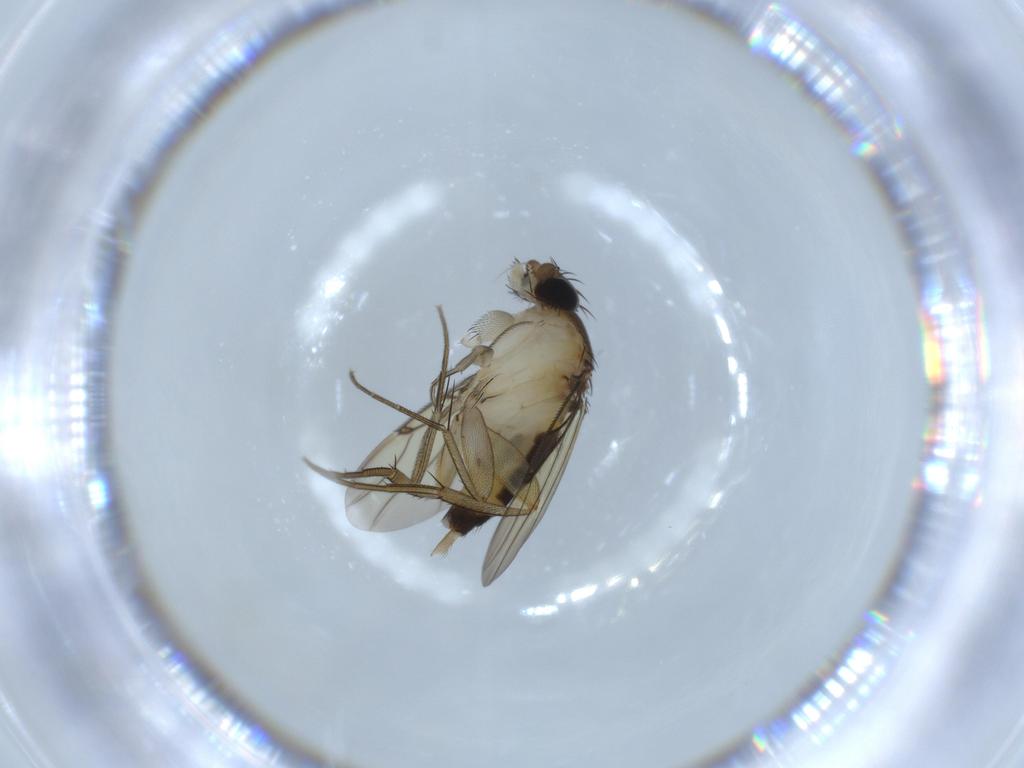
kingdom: Animalia
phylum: Arthropoda
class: Insecta
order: Diptera
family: Phoridae
